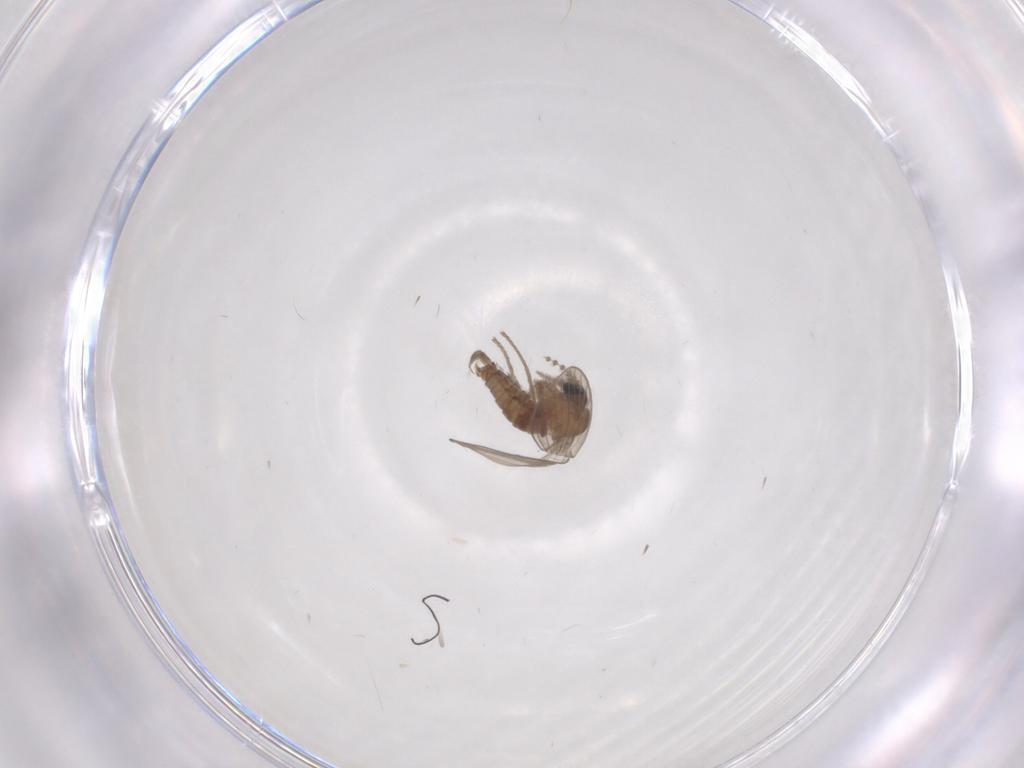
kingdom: Animalia
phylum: Arthropoda
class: Insecta
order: Diptera
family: Psychodidae
